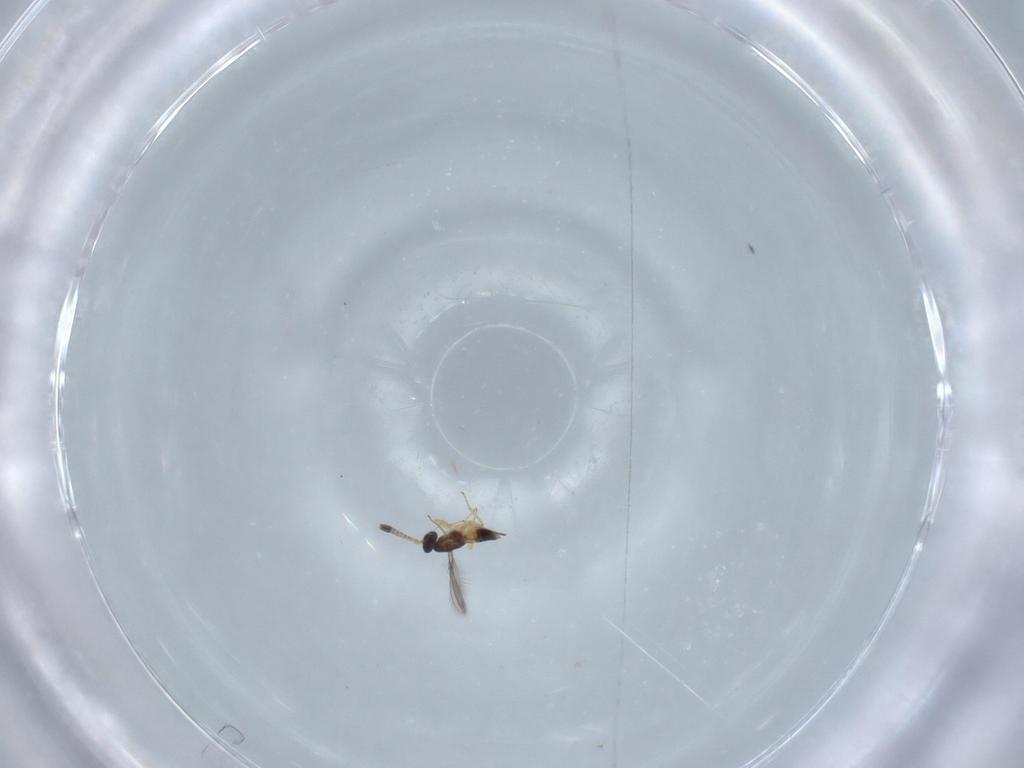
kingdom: Animalia
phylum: Arthropoda
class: Insecta
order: Hymenoptera
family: Mymaridae
